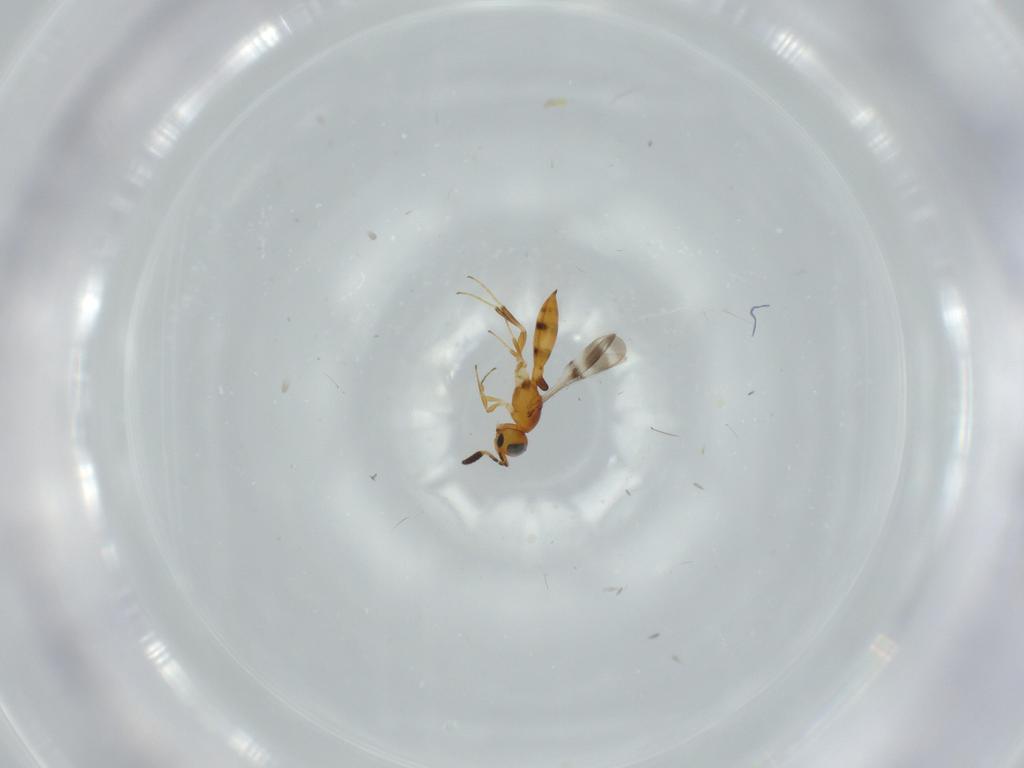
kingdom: Animalia
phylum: Arthropoda
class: Insecta
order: Hymenoptera
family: Scelionidae
